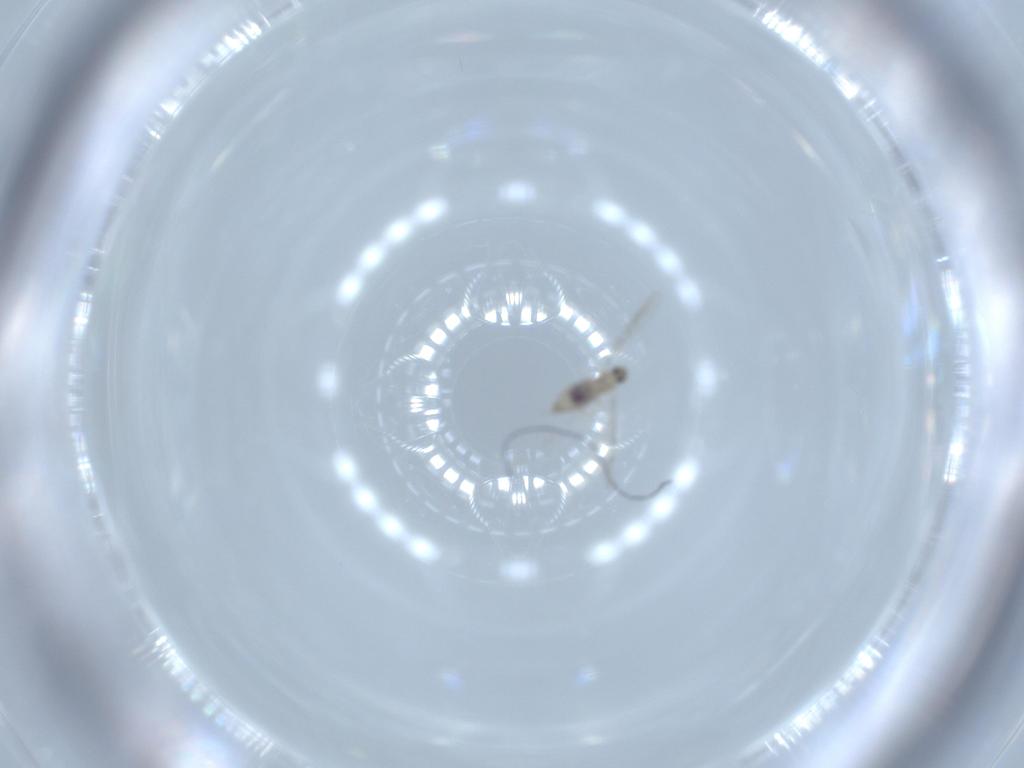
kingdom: Animalia
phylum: Arthropoda
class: Insecta
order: Diptera
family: Cecidomyiidae
